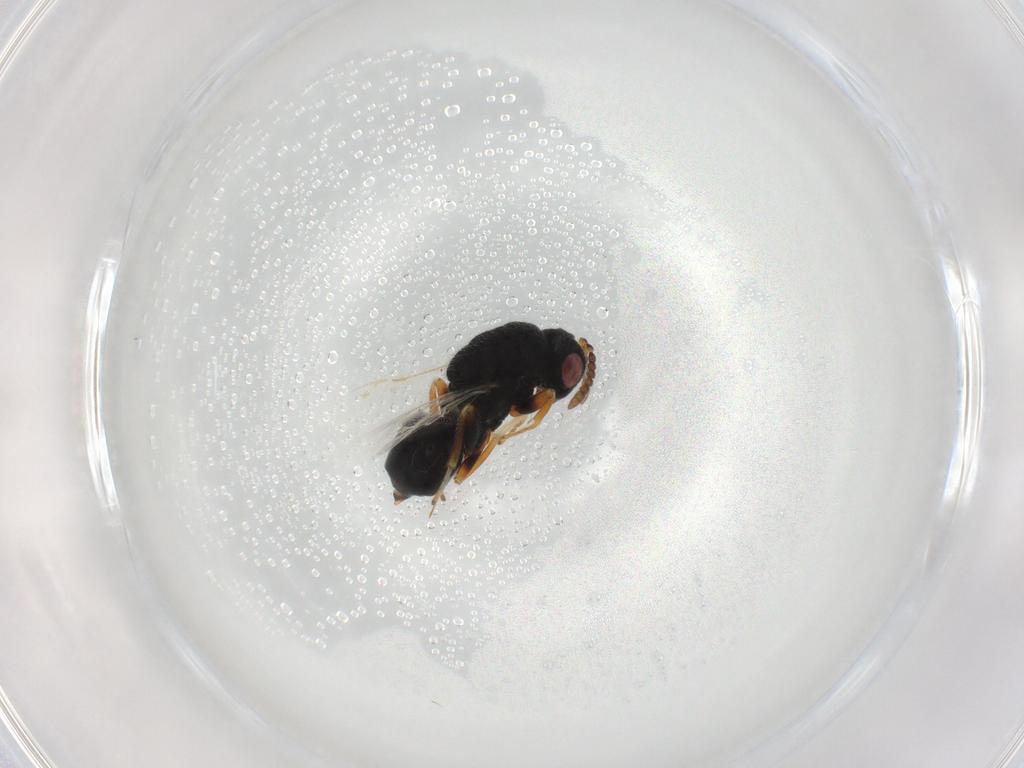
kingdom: Animalia
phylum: Arthropoda
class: Insecta
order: Hymenoptera
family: Eurytomidae
